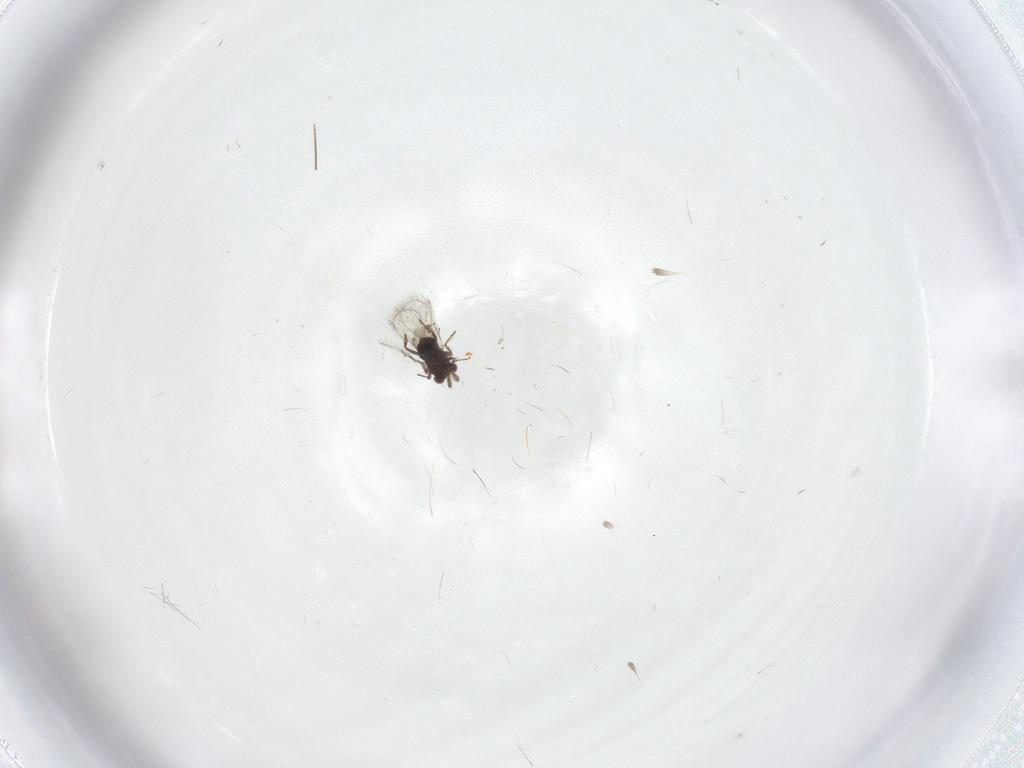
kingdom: Animalia
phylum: Arthropoda
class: Insecta
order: Hymenoptera
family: Trichogrammatidae
